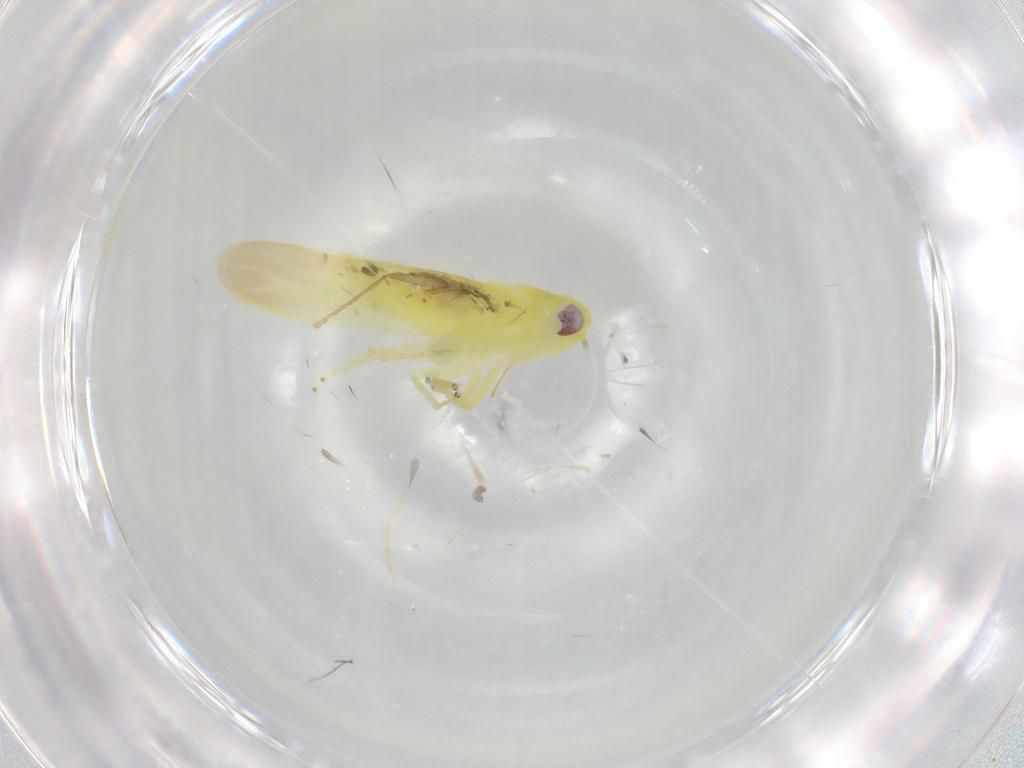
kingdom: Animalia
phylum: Arthropoda
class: Insecta
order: Hemiptera
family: Cicadellidae
